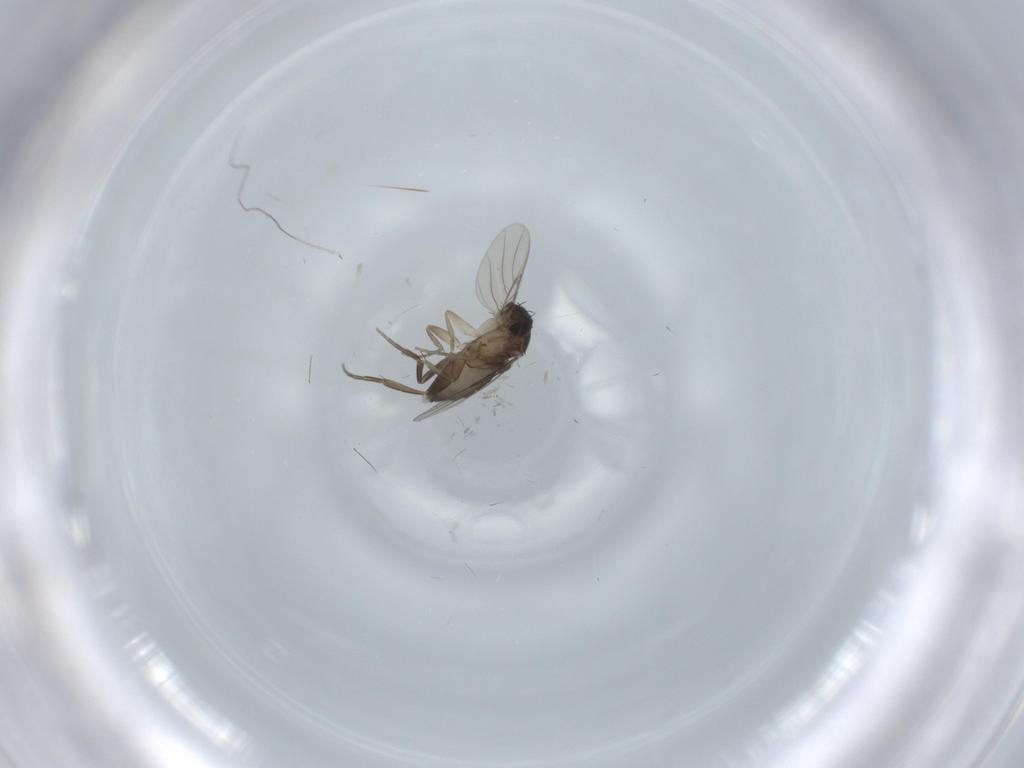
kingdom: Animalia
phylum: Arthropoda
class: Insecta
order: Diptera
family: Phoridae
